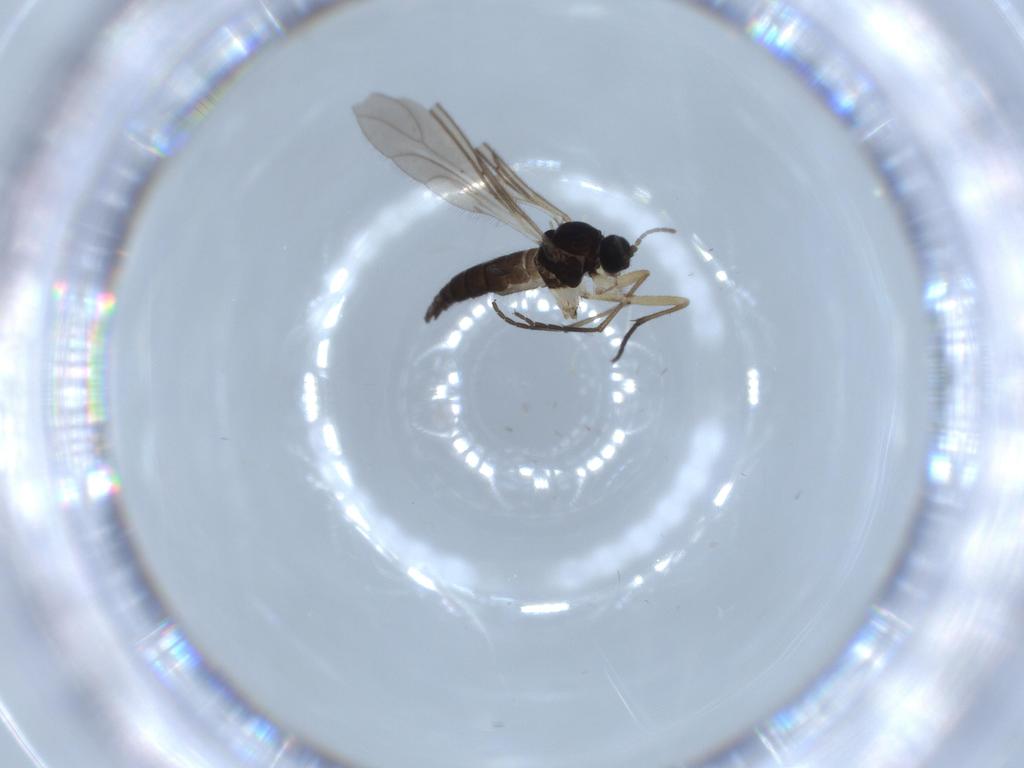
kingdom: Animalia
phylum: Arthropoda
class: Insecta
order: Diptera
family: Sciaridae
